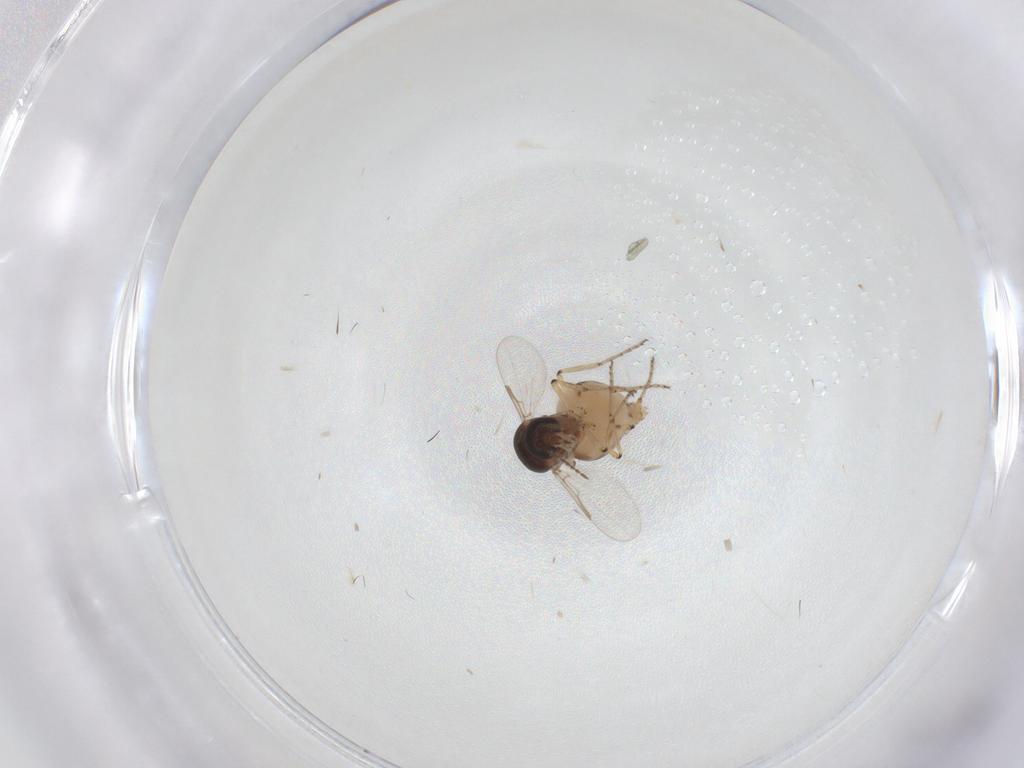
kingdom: Animalia
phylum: Arthropoda
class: Insecta
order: Diptera
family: Ceratopogonidae
